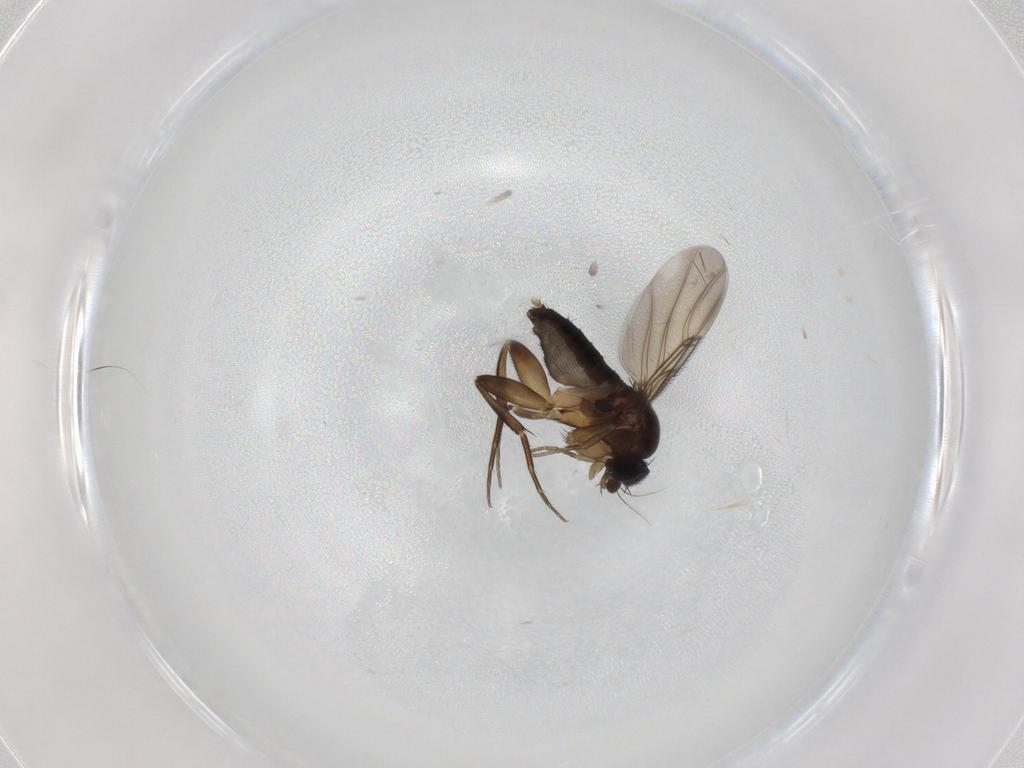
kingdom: Animalia
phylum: Arthropoda
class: Insecta
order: Diptera
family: Phoridae
